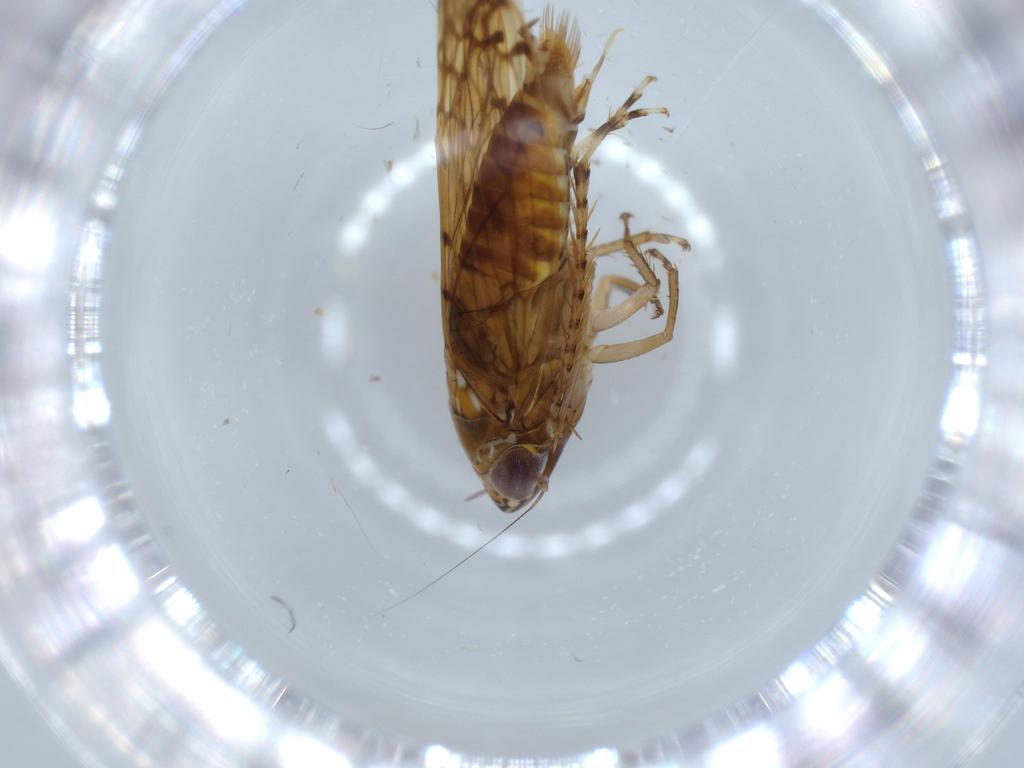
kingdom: Animalia
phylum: Arthropoda
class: Insecta
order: Hemiptera
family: Cicadellidae
